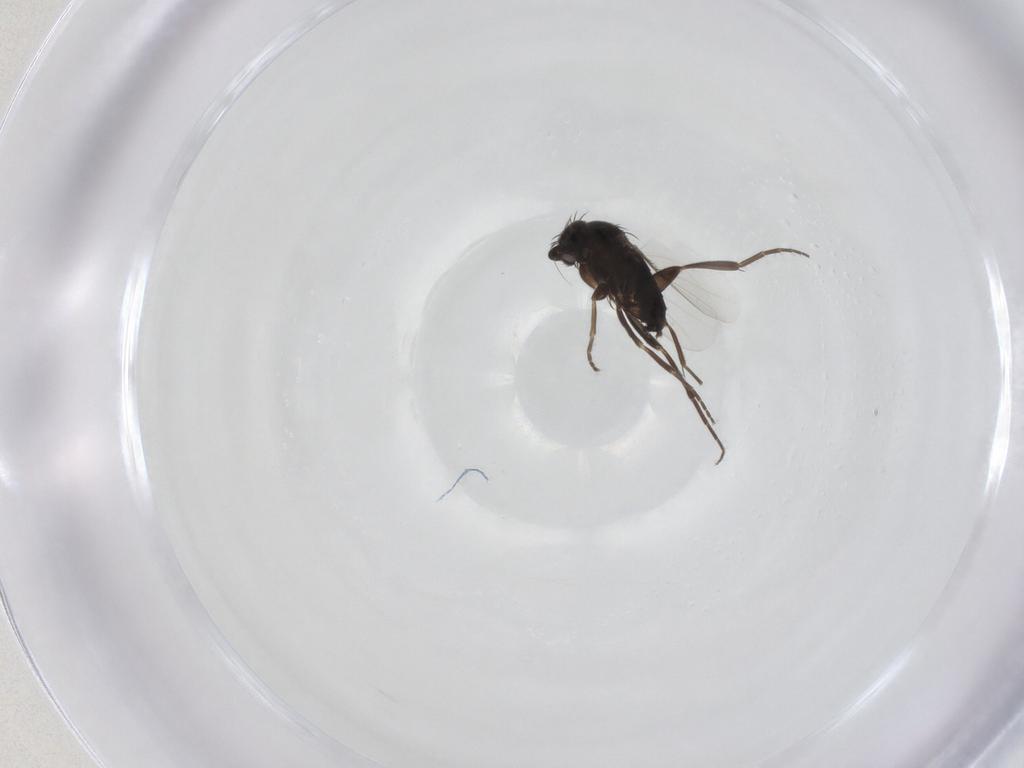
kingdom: Animalia
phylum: Arthropoda
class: Insecta
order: Diptera
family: Phoridae
